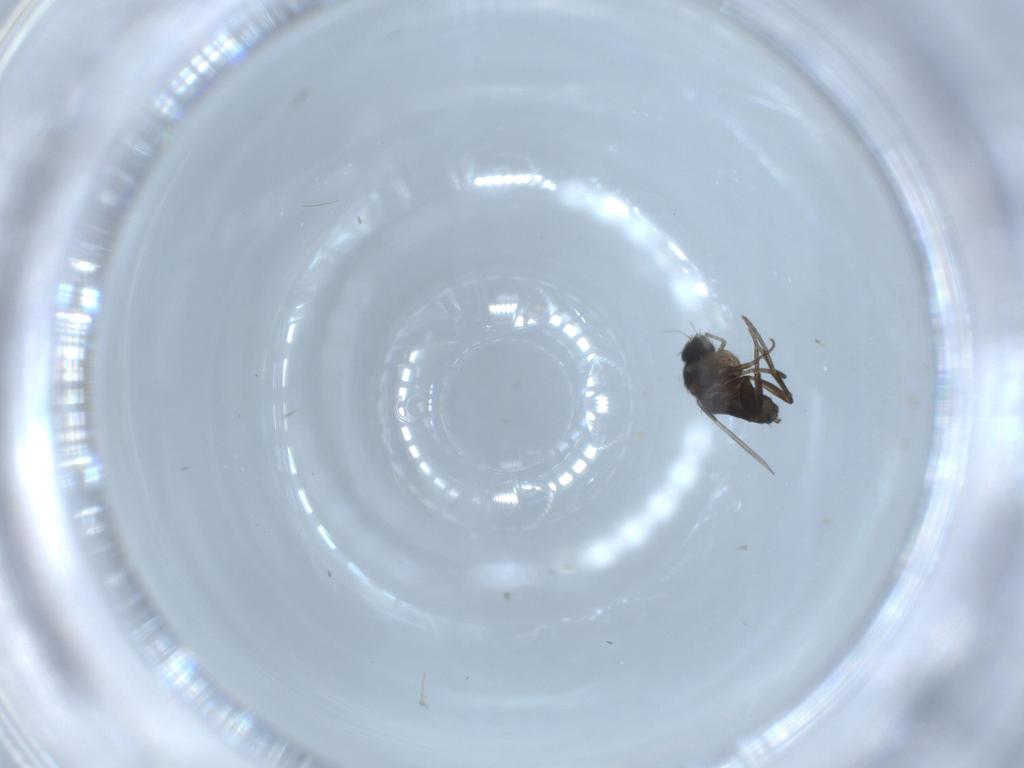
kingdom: Animalia
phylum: Arthropoda
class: Insecta
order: Diptera
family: Phoridae
